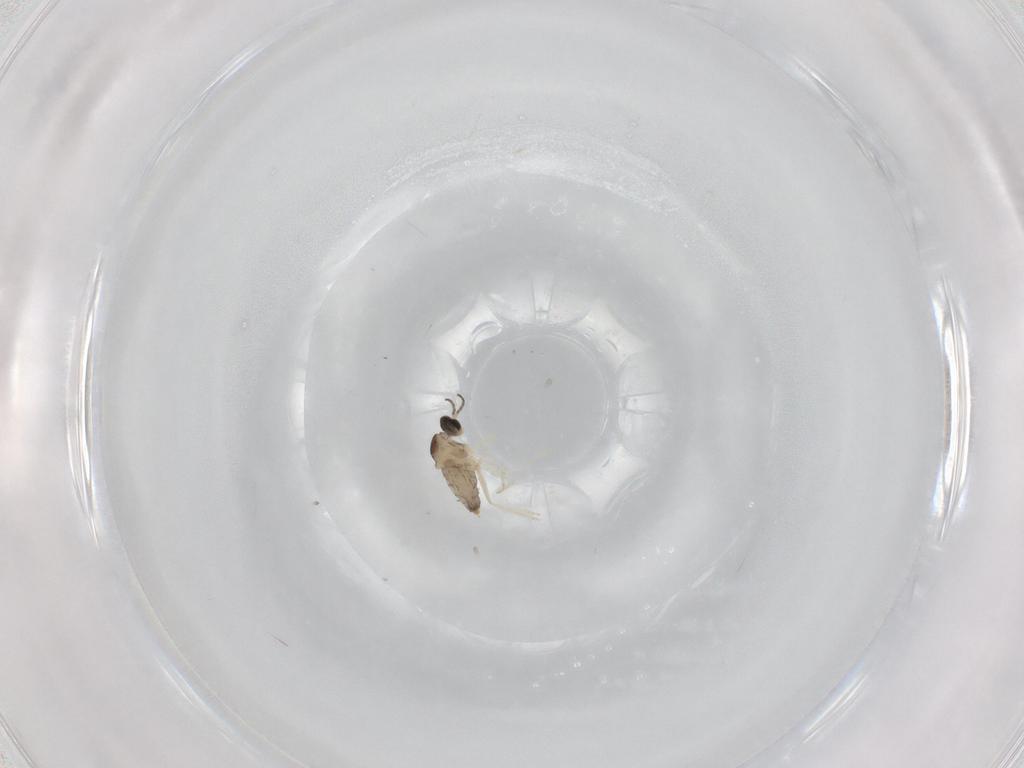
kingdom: Animalia
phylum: Arthropoda
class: Insecta
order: Diptera
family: Cecidomyiidae
